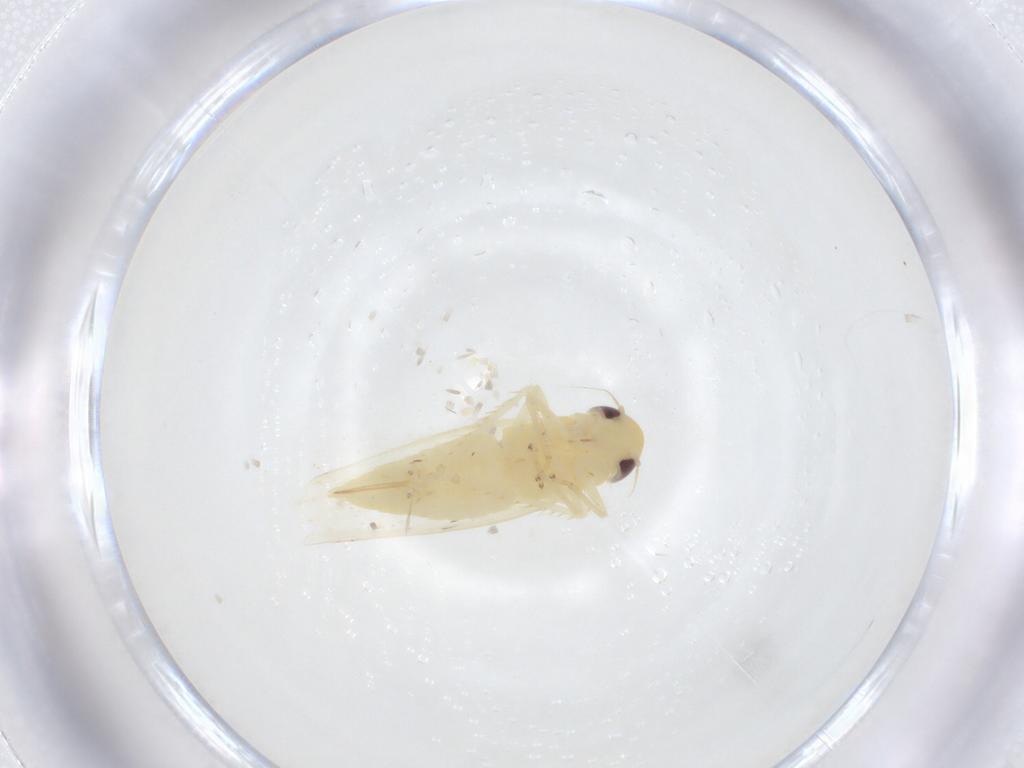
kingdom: Animalia
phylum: Arthropoda
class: Insecta
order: Hemiptera
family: Cicadellidae
